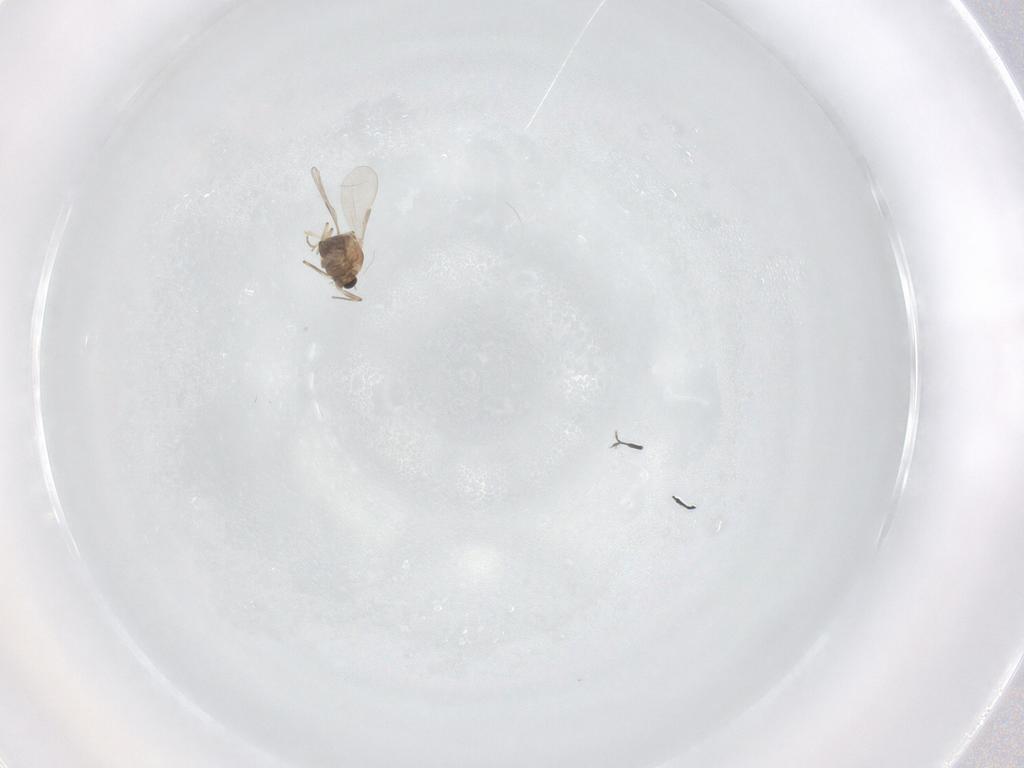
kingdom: Animalia
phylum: Arthropoda
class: Insecta
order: Diptera
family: Chironomidae
